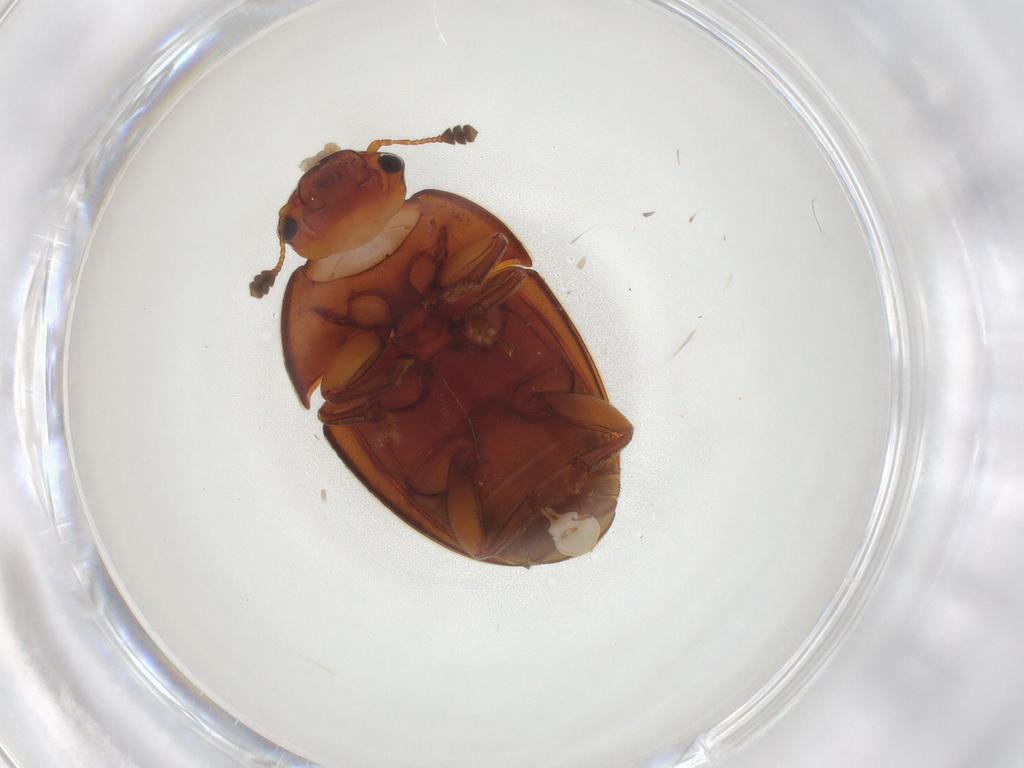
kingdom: Animalia
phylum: Arthropoda
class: Insecta
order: Coleoptera
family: Nitidulidae
